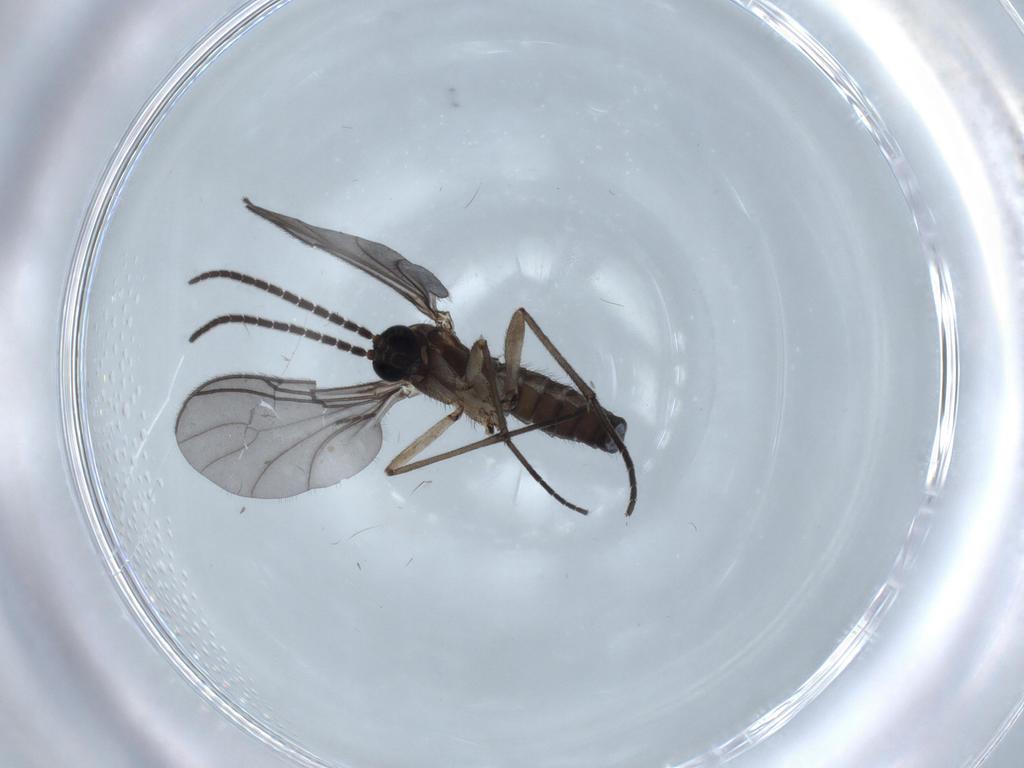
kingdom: Animalia
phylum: Arthropoda
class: Insecta
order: Diptera
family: Sciaridae
